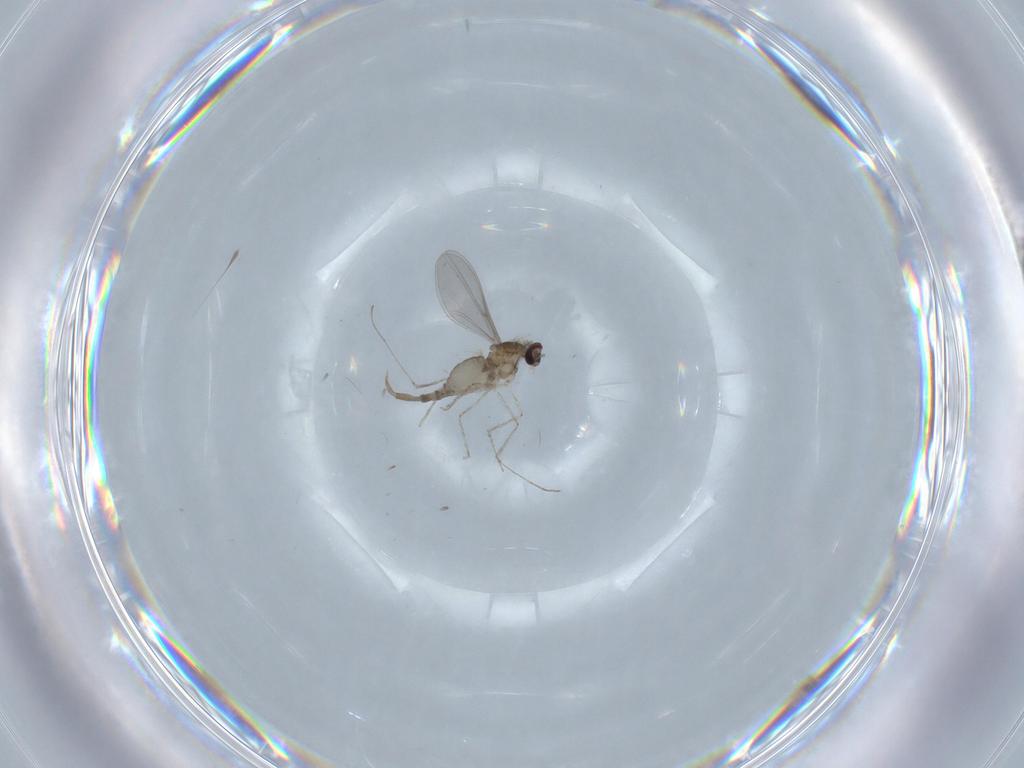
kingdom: Animalia
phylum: Arthropoda
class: Insecta
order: Diptera
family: Cecidomyiidae
